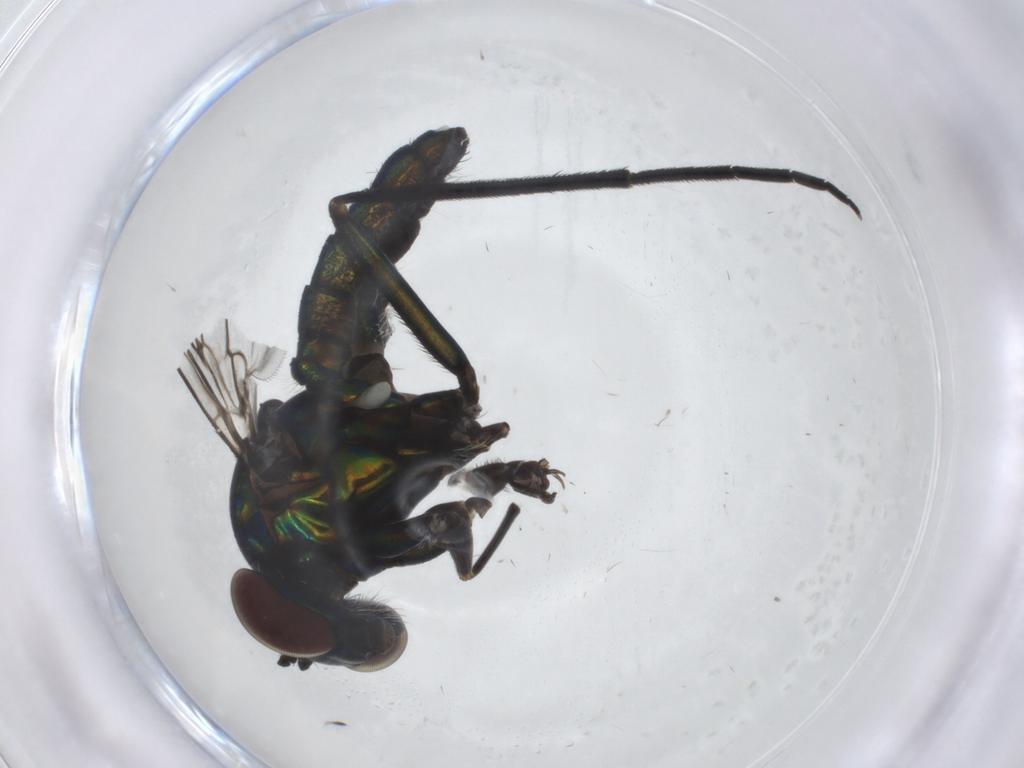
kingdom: Animalia
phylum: Arthropoda
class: Insecta
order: Diptera
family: Dolichopodidae
